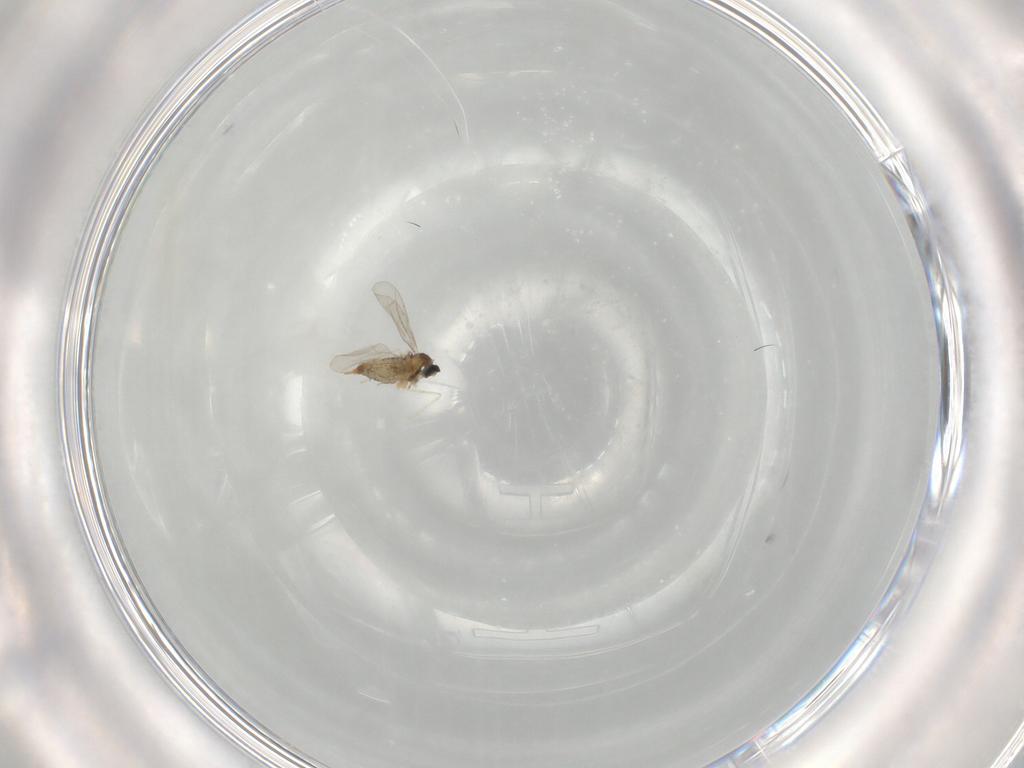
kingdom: Animalia
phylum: Arthropoda
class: Insecta
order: Diptera
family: Cecidomyiidae
